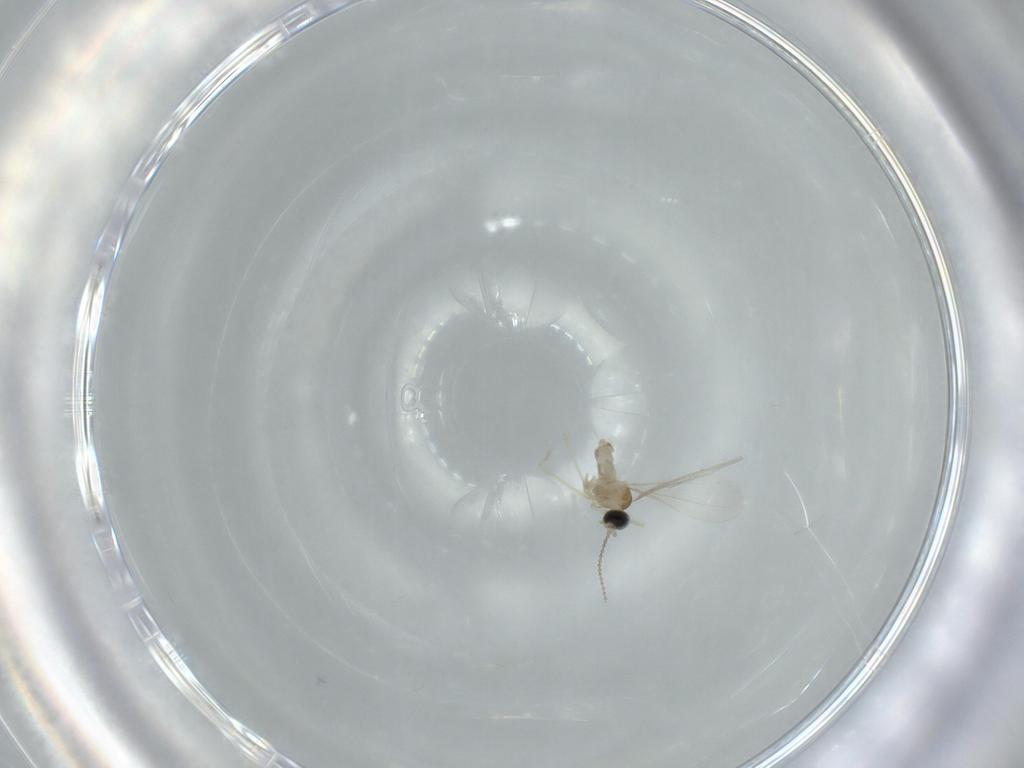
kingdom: Animalia
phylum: Arthropoda
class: Insecta
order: Diptera
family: Cecidomyiidae
